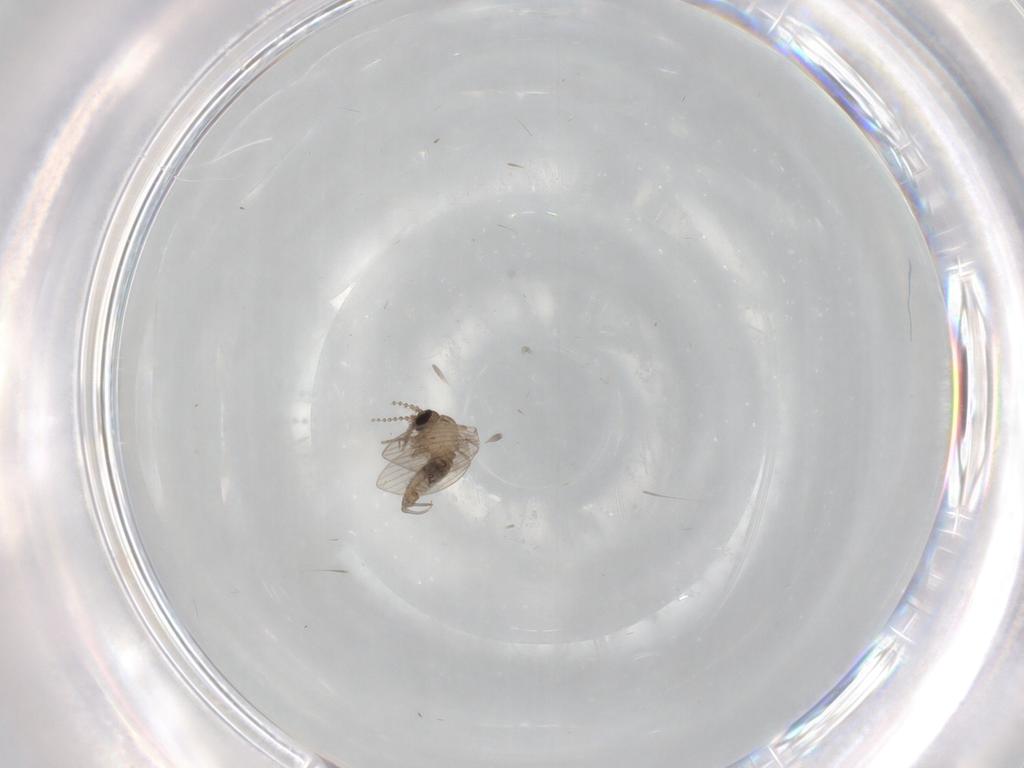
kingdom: Animalia
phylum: Arthropoda
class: Insecta
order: Diptera
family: Psychodidae
